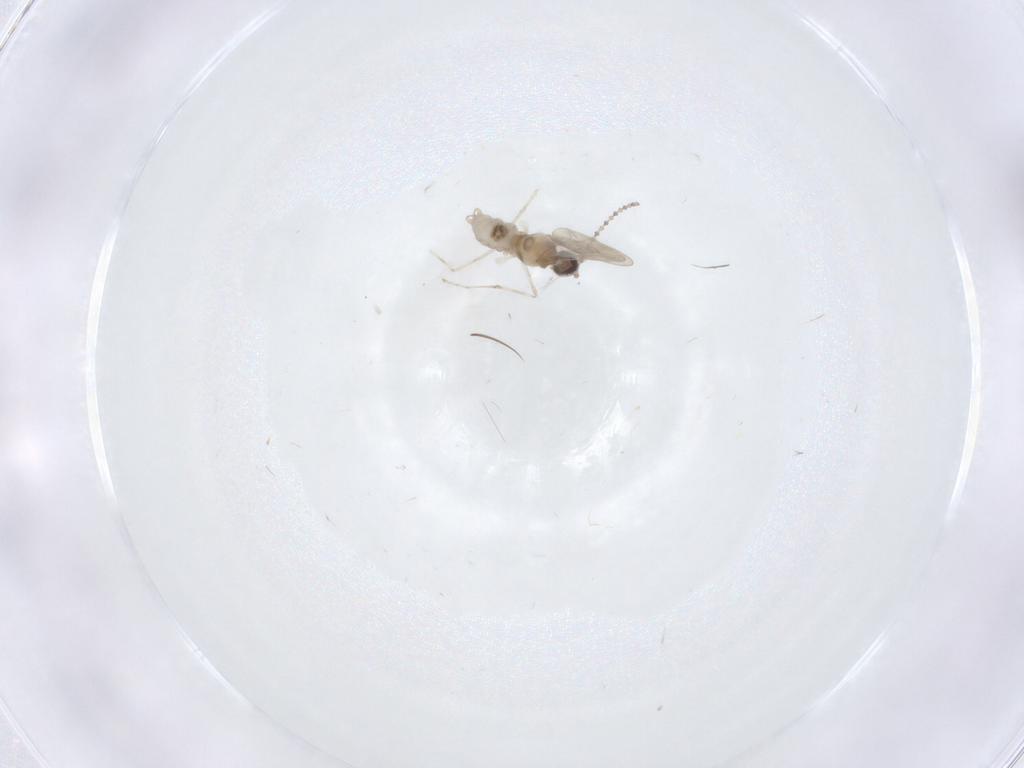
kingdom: Animalia
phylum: Arthropoda
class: Insecta
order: Diptera
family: Cecidomyiidae
